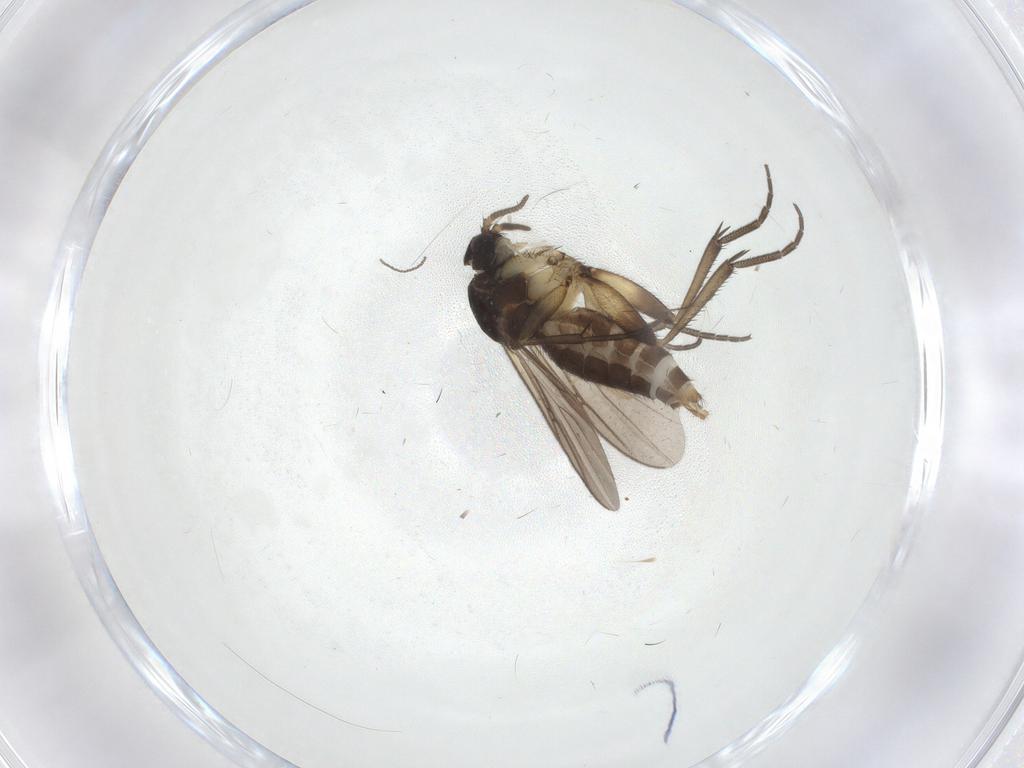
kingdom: Animalia
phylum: Arthropoda
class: Insecta
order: Diptera
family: Mycetophilidae
